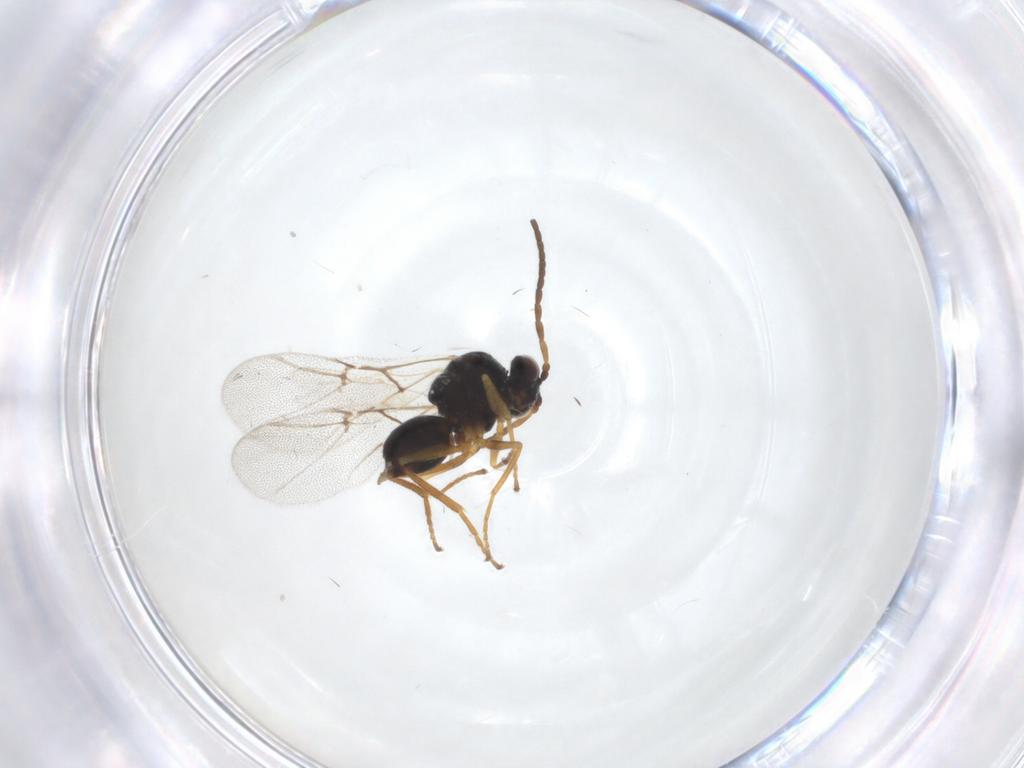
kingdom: Animalia
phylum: Arthropoda
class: Insecta
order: Hymenoptera
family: Cynipidae
